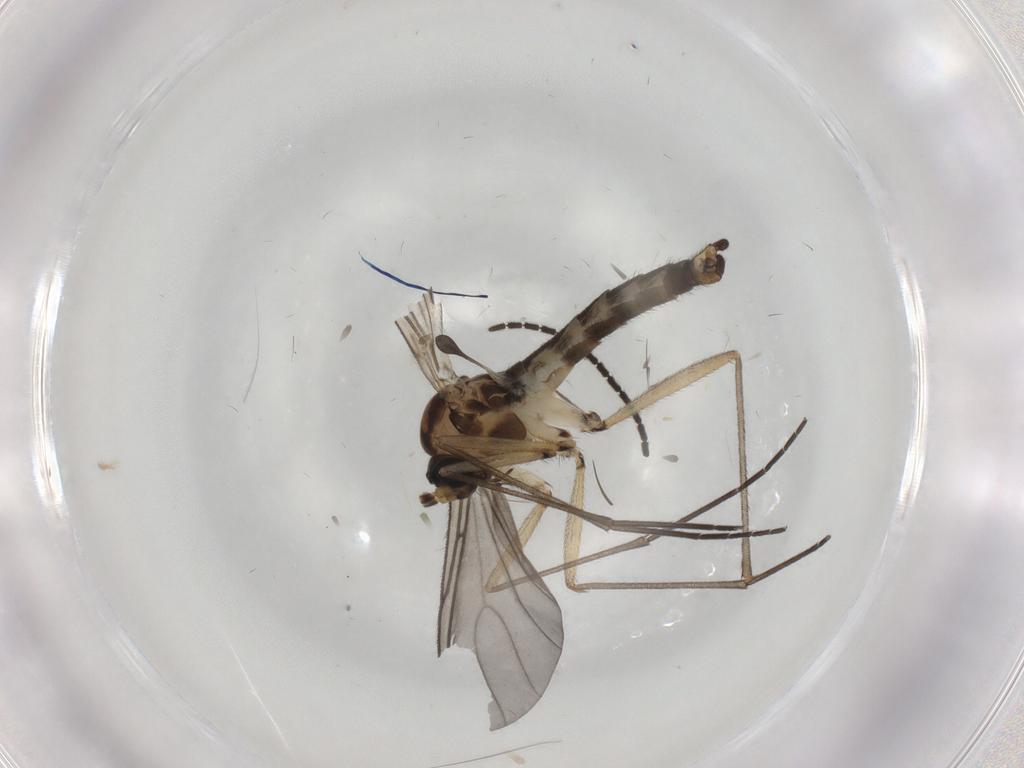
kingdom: Animalia
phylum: Arthropoda
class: Insecta
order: Diptera
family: Sciaridae
